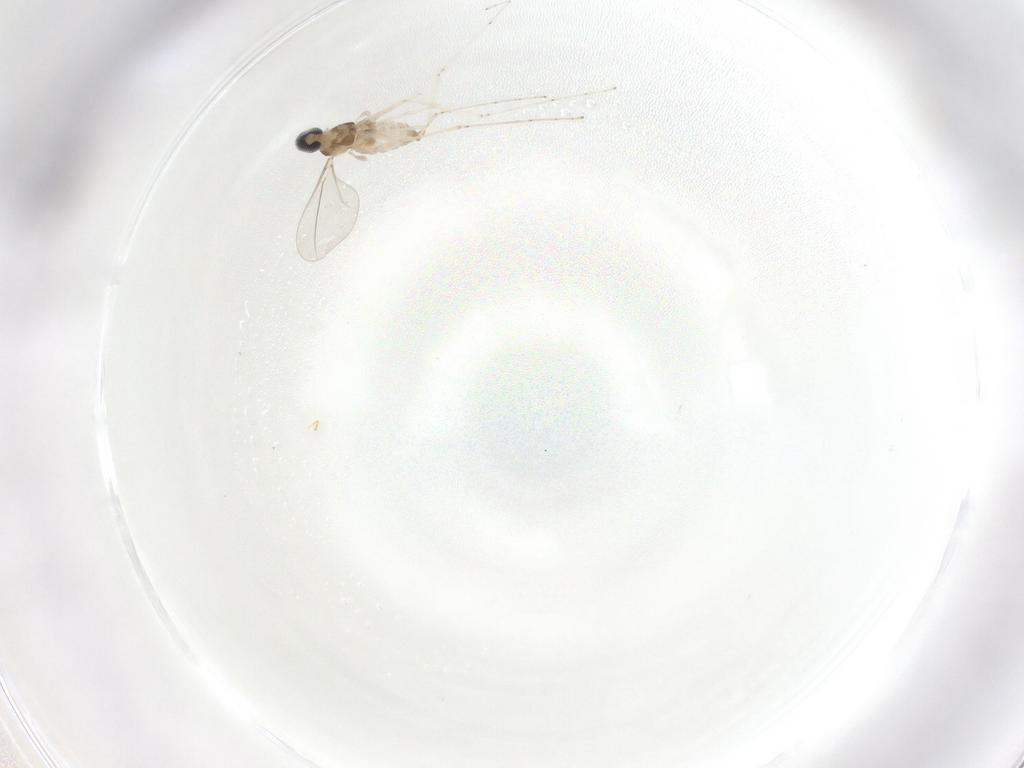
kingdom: Animalia
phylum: Arthropoda
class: Insecta
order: Diptera
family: Cecidomyiidae
